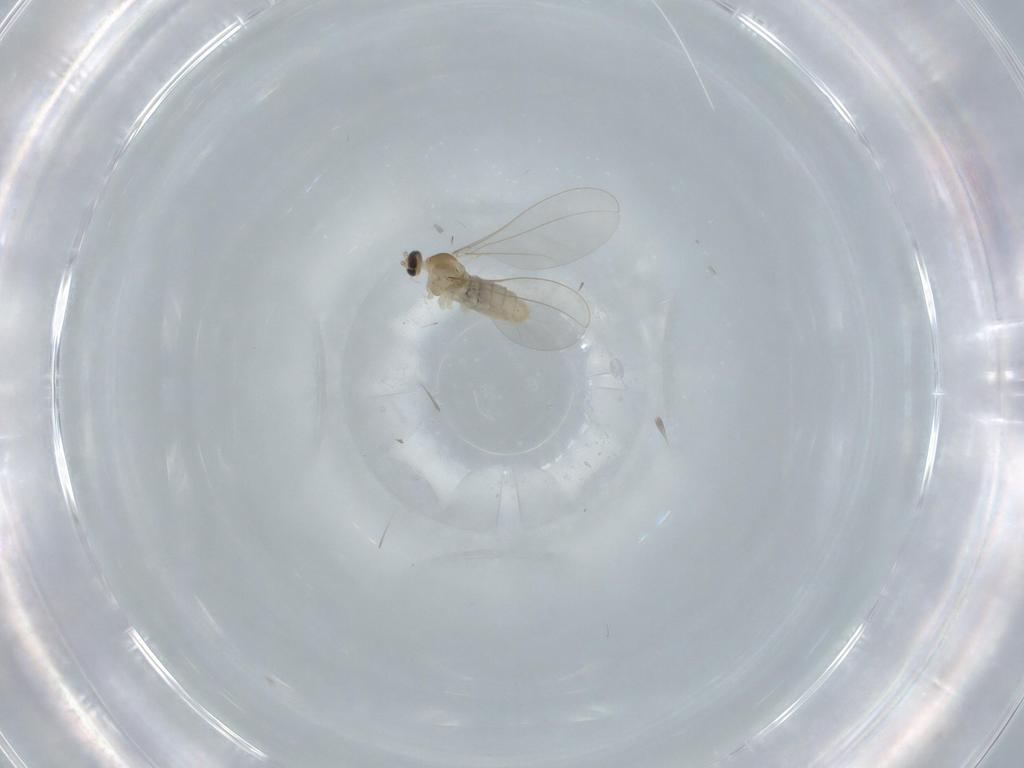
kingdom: Animalia
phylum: Arthropoda
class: Insecta
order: Diptera
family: Cecidomyiidae
